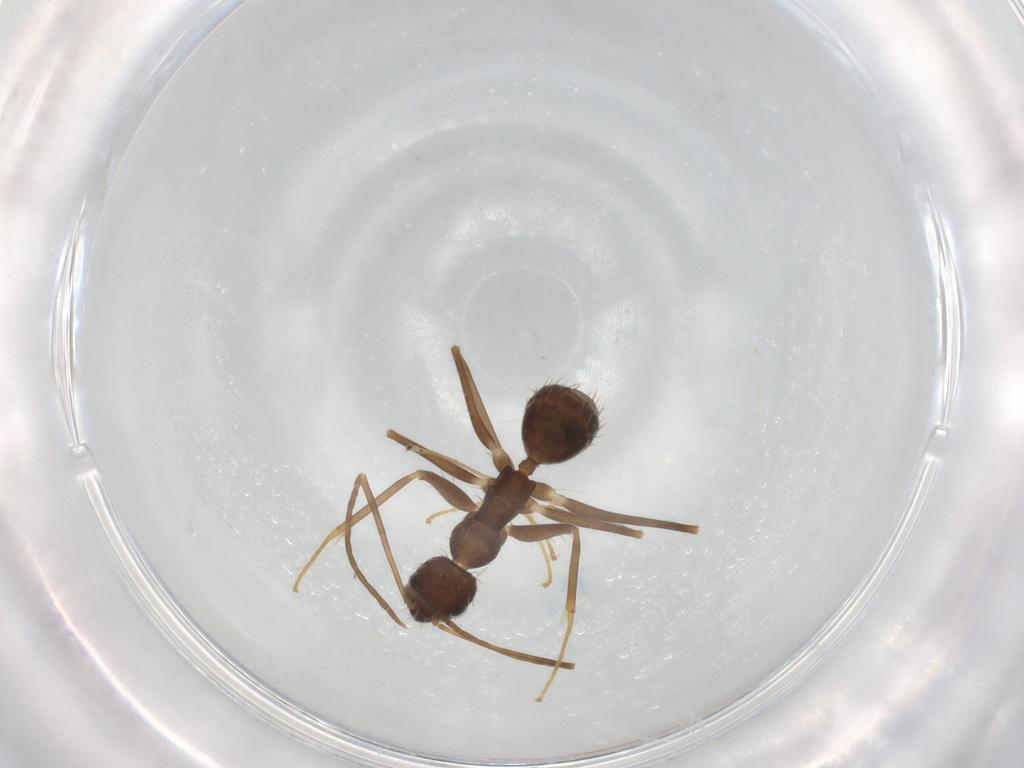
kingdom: Animalia
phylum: Arthropoda
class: Insecta
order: Hymenoptera
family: Formicidae
